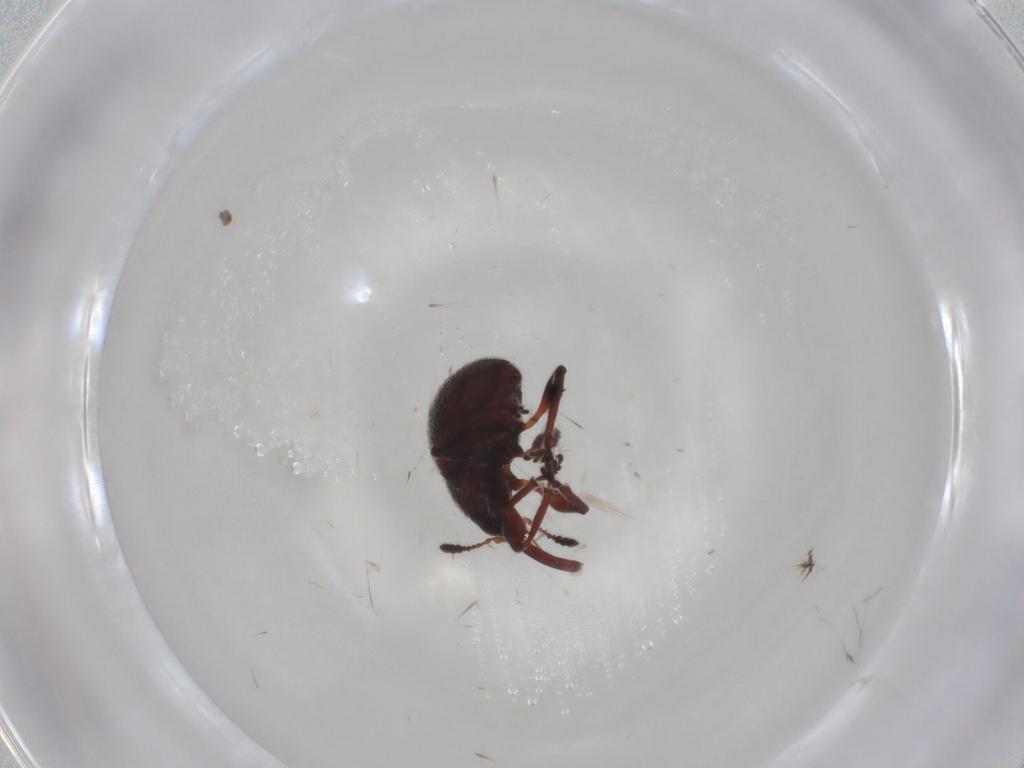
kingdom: Animalia
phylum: Arthropoda
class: Insecta
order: Coleoptera
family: Brentidae
